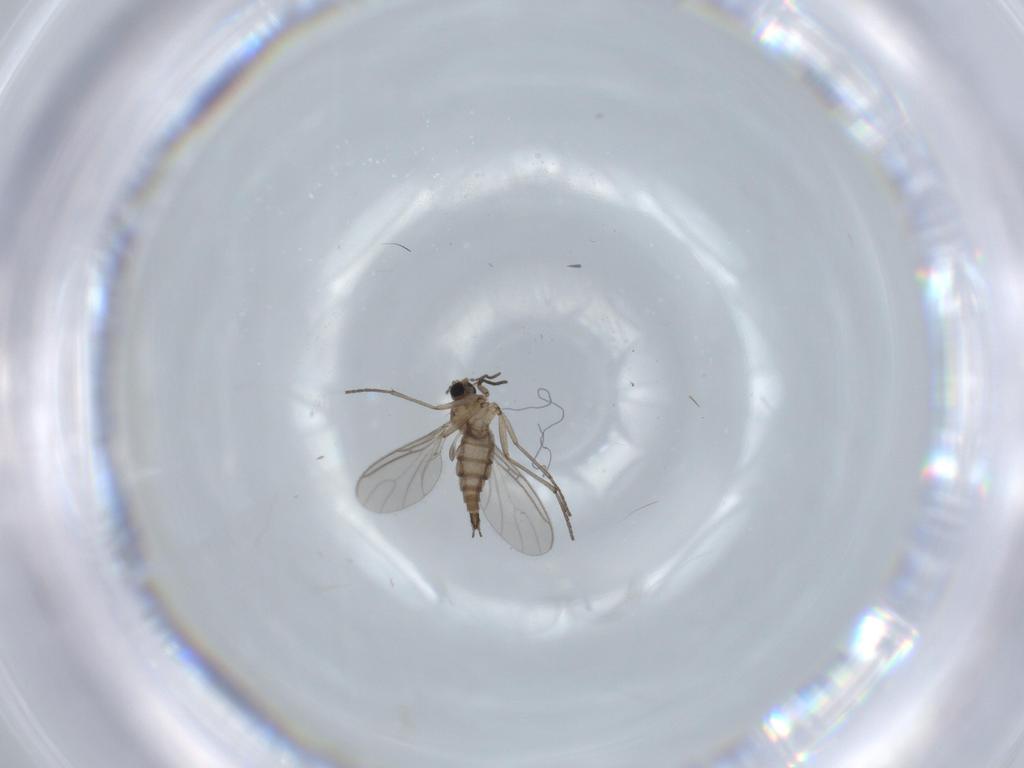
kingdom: Animalia
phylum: Arthropoda
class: Insecta
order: Diptera
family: Sciaridae
